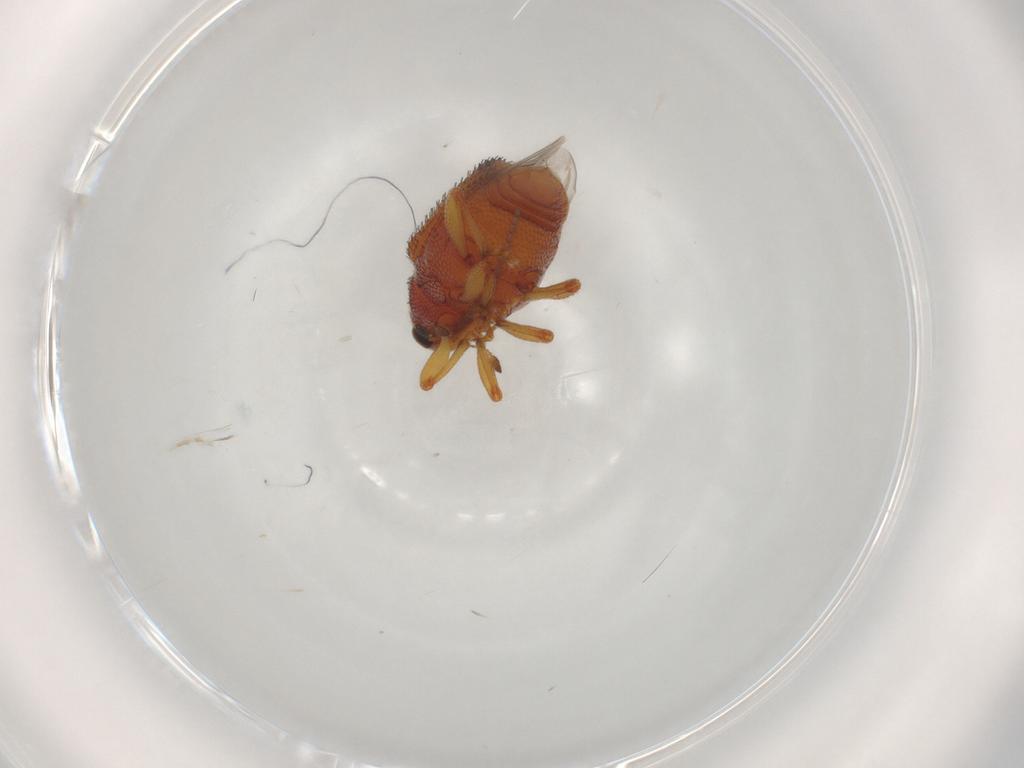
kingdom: Animalia
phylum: Arthropoda
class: Insecta
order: Coleoptera
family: Curculionidae
